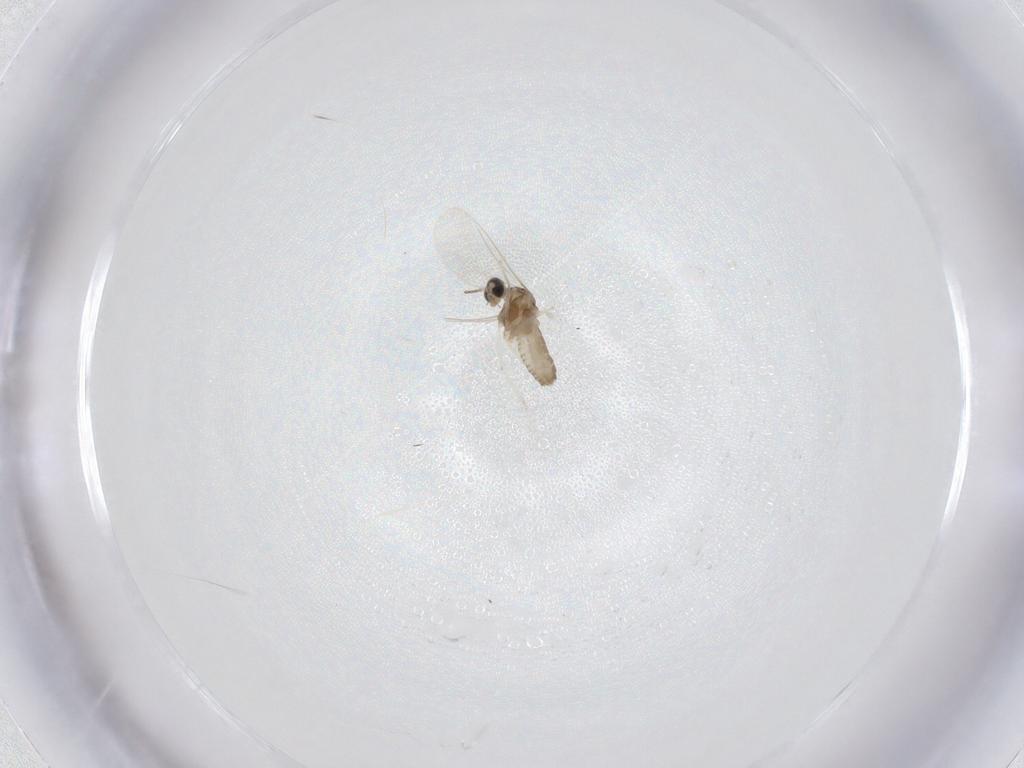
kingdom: Animalia
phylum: Arthropoda
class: Insecta
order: Diptera
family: Cecidomyiidae
